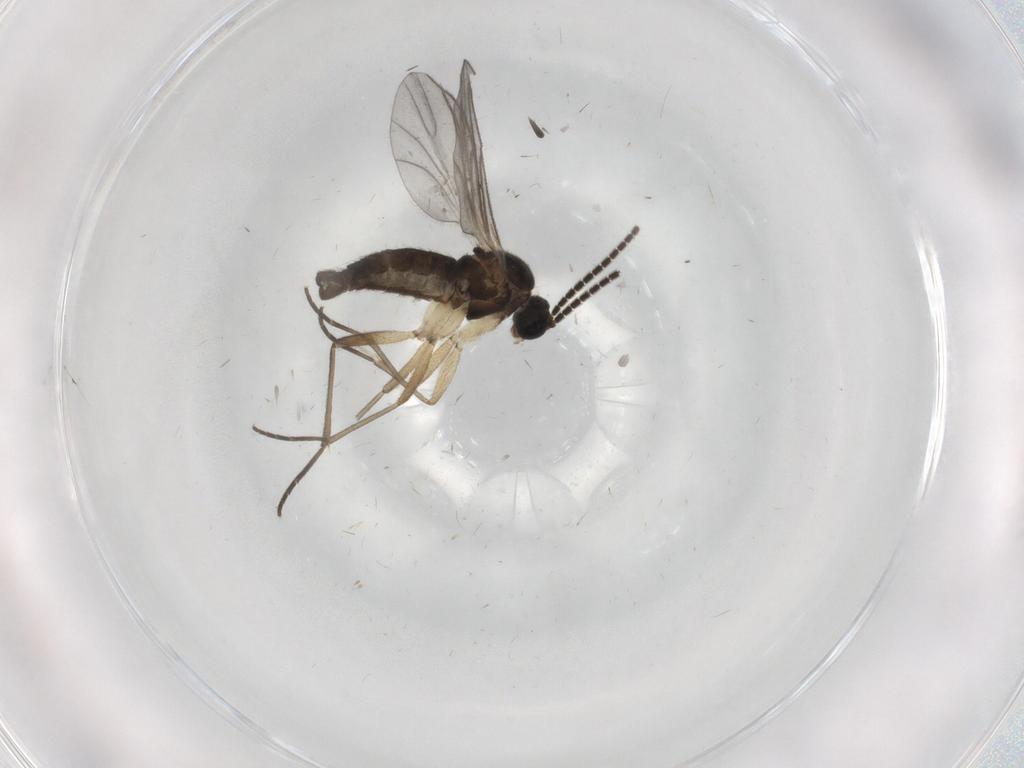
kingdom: Animalia
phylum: Arthropoda
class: Insecta
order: Diptera
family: Sciaridae
